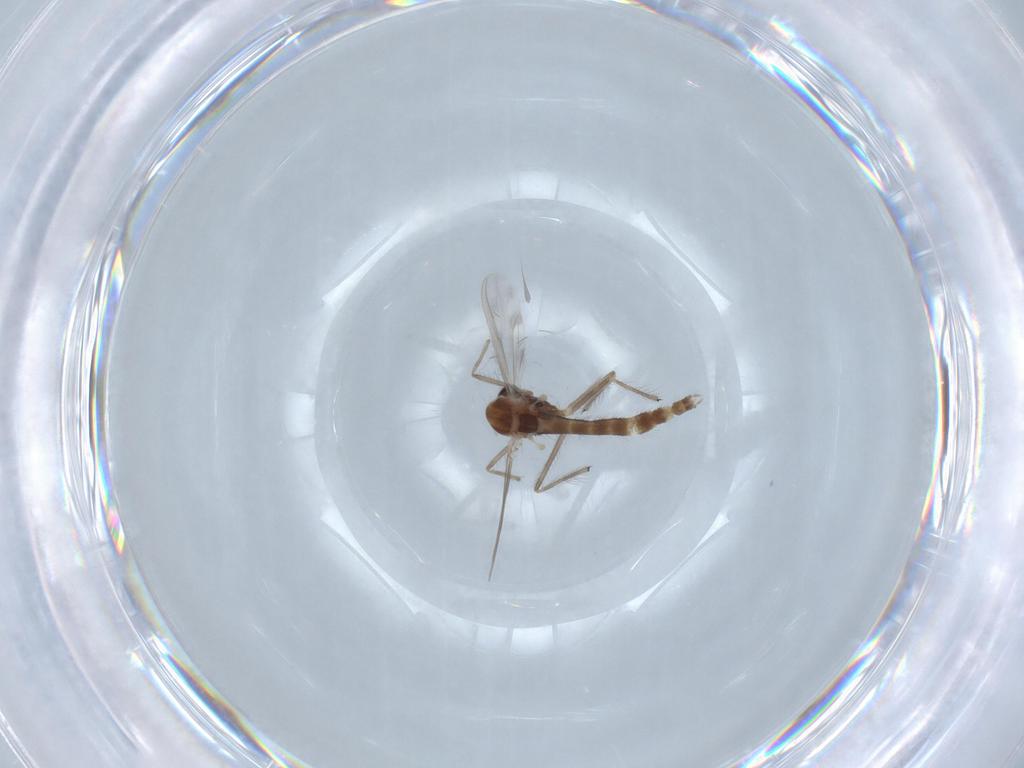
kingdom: Animalia
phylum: Arthropoda
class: Insecta
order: Diptera
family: Chironomidae
